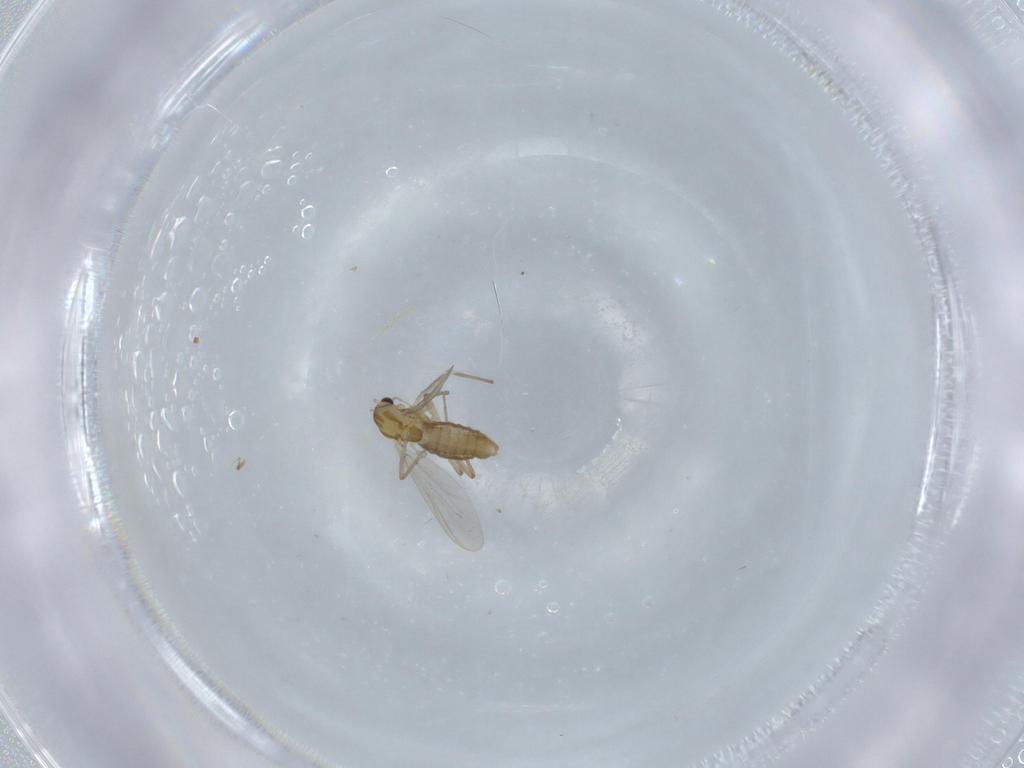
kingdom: Animalia
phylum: Arthropoda
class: Insecta
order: Diptera
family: Chironomidae
